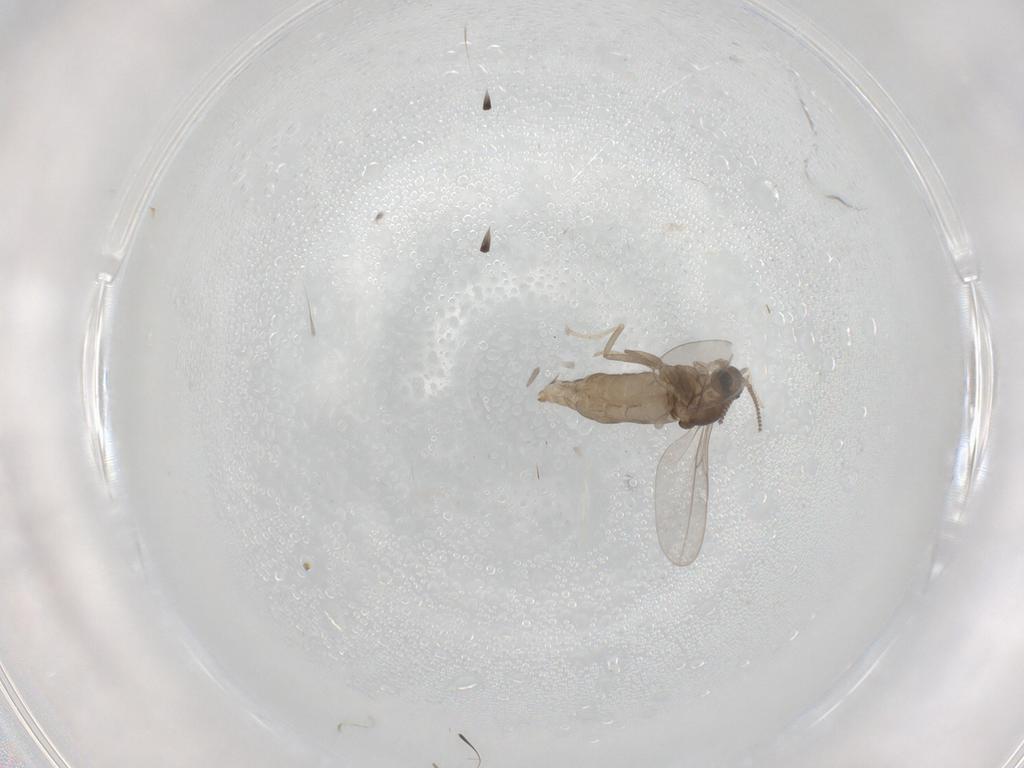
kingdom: Animalia
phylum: Arthropoda
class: Insecta
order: Diptera
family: Cecidomyiidae
